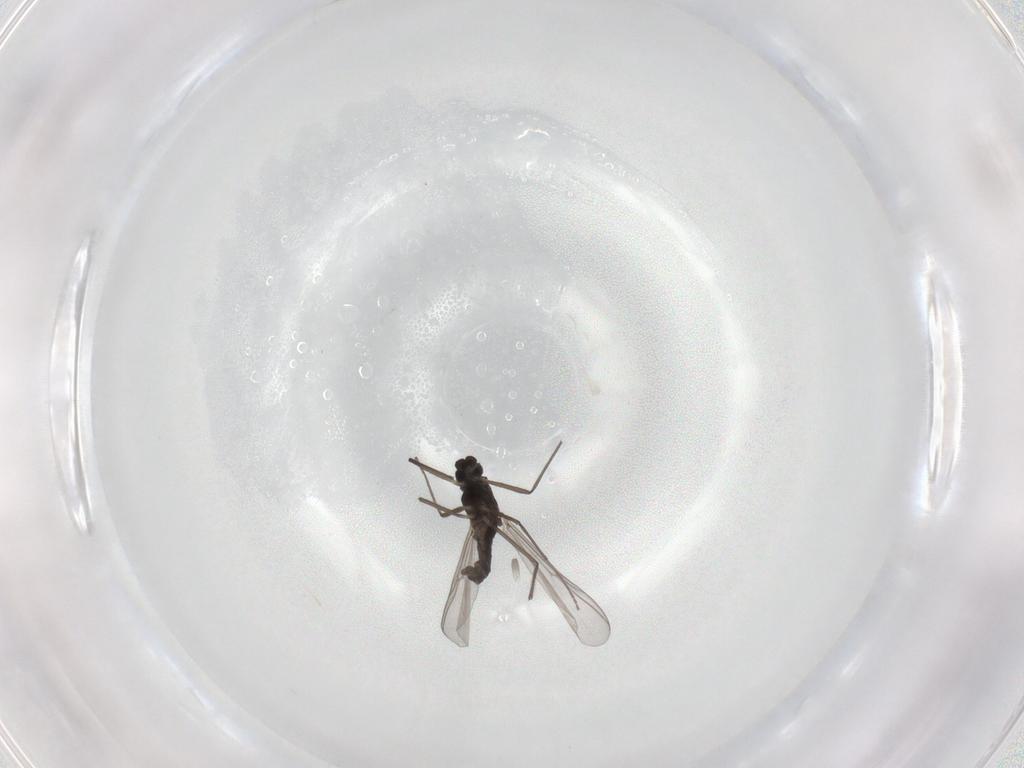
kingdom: Animalia
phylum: Arthropoda
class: Insecta
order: Diptera
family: Chironomidae
